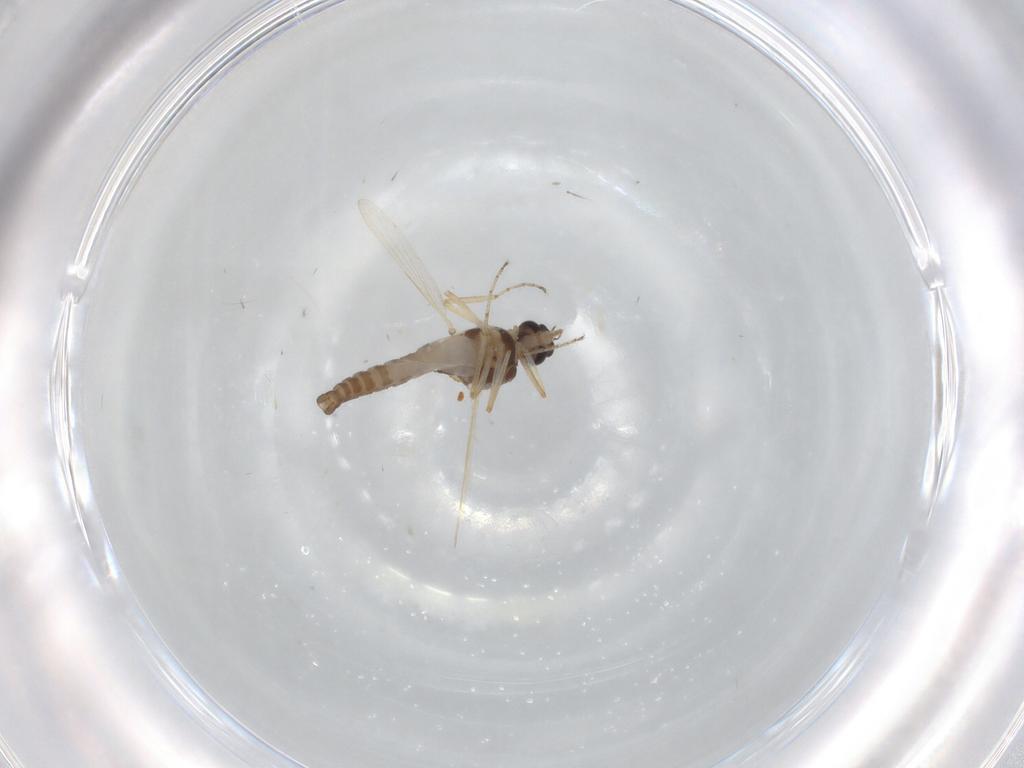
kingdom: Animalia
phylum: Arthropoda
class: Insecta
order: Diptera
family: Ceratopogonidae
